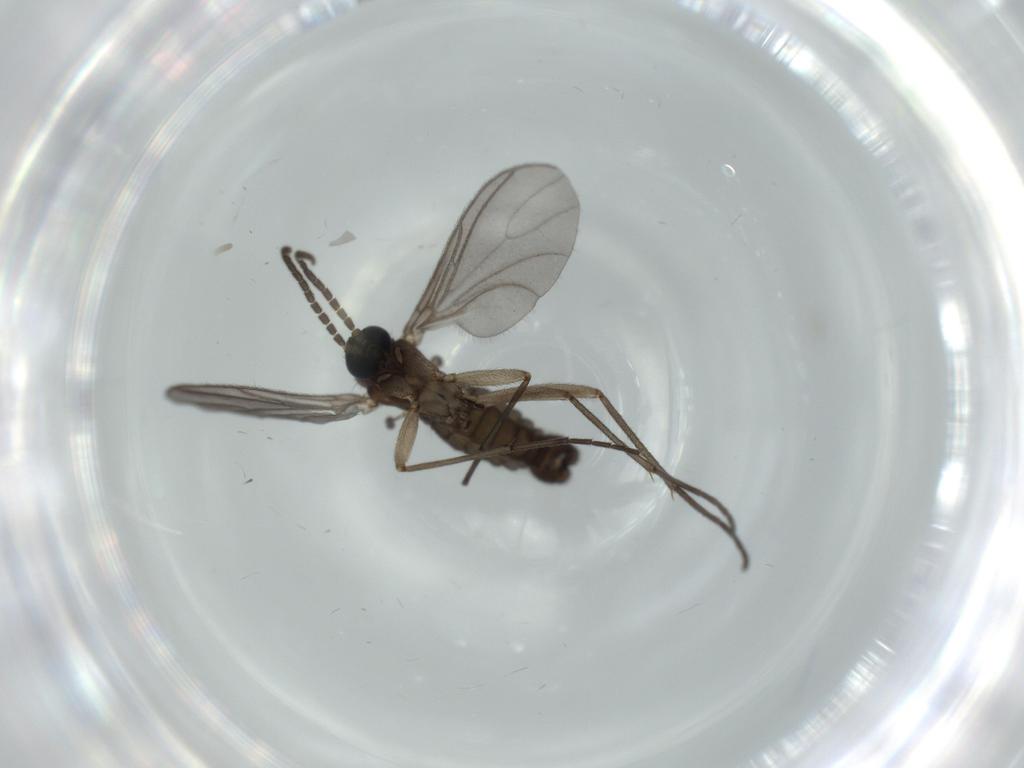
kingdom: Animalia
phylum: Arthropoda
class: Insecta
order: Diptera
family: Sciaridae
